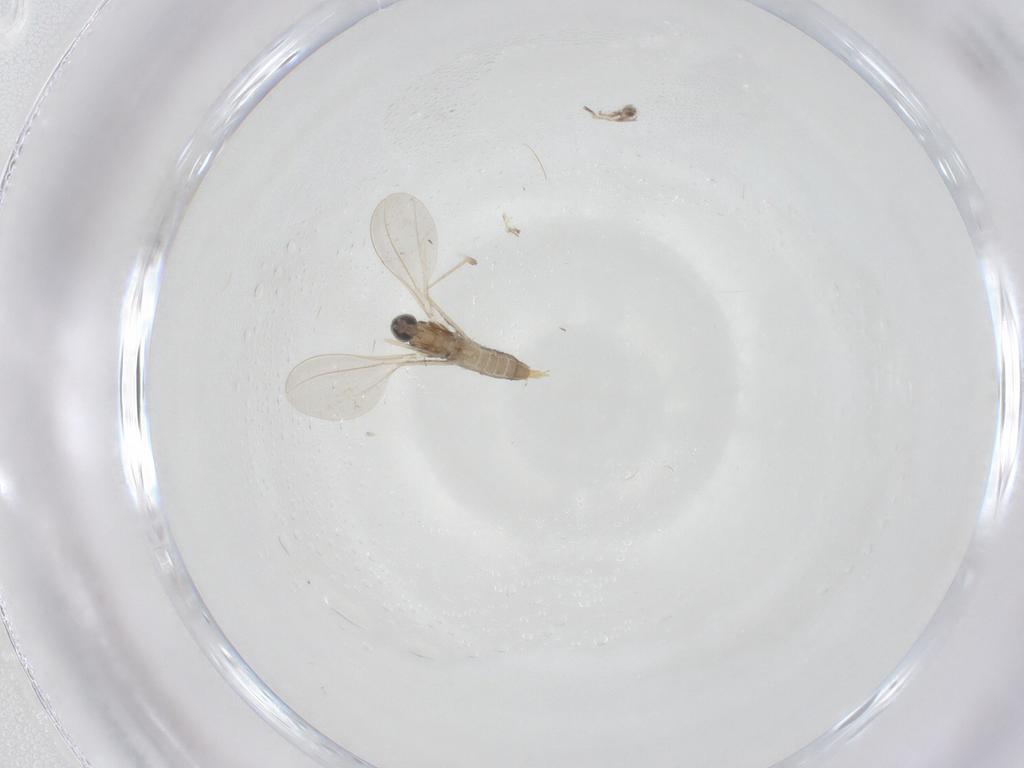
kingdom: Animalia
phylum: Arthropoda
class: Insecta
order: Diptera
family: Cecidomyiidae
